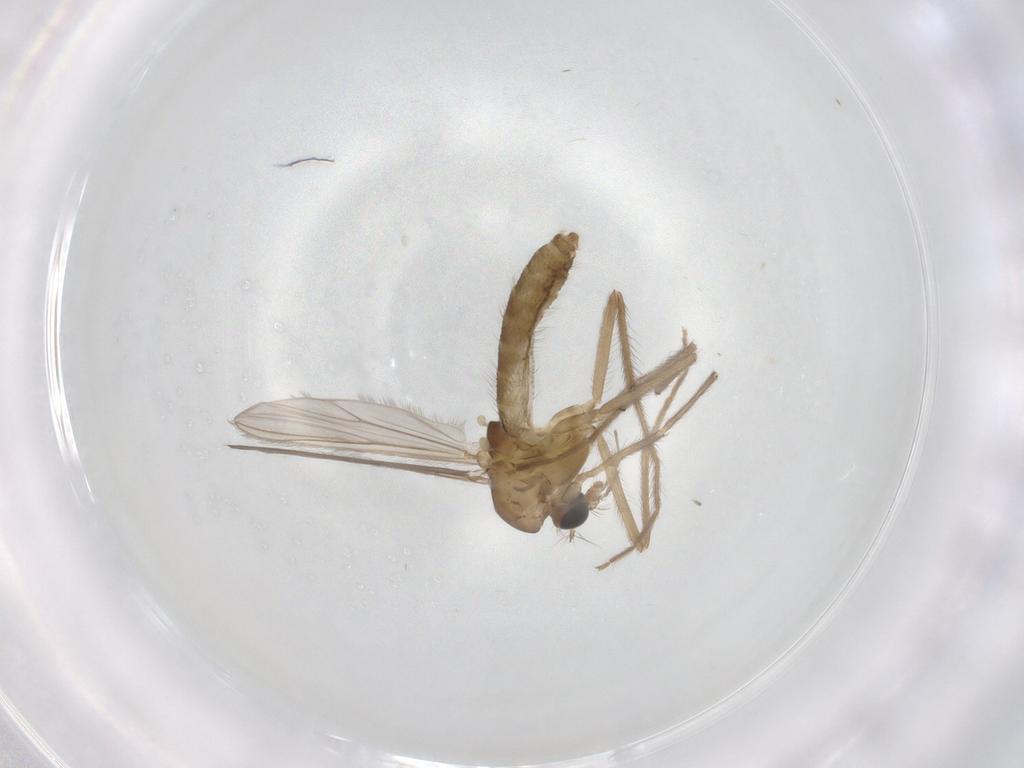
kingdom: Animalia
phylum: Arthropoda
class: Insecta
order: Diptera
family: Chironomidae
